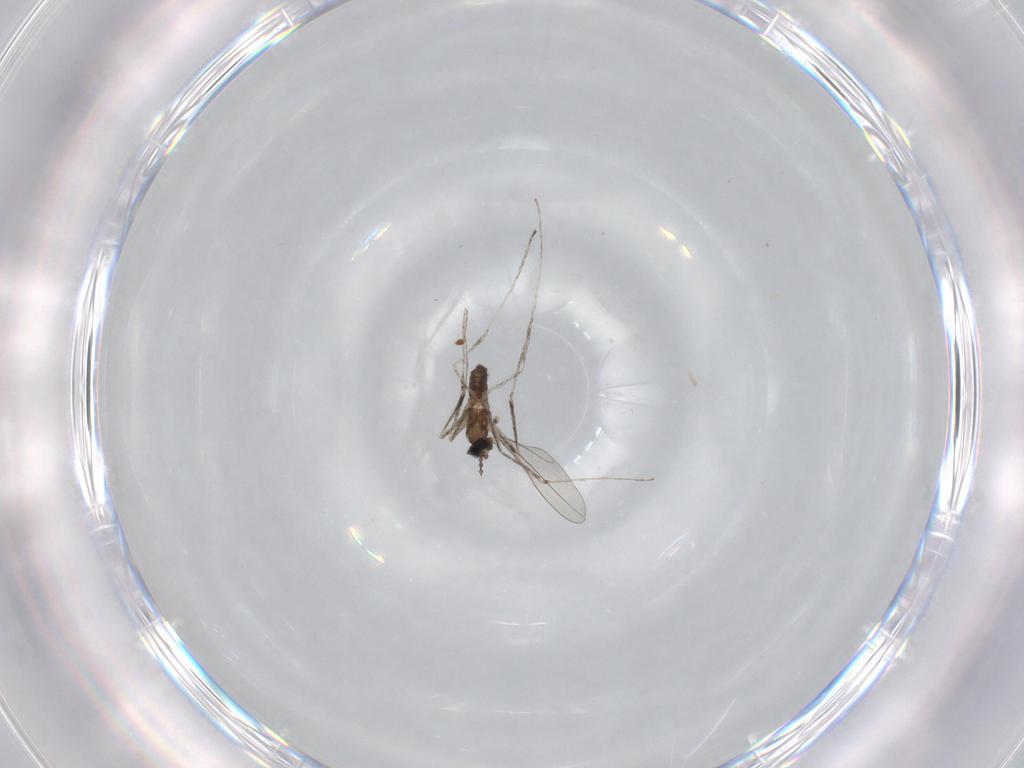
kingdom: Animalia
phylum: Arthropoda
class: Insecta
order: Diptera
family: Cecidomyiidae
